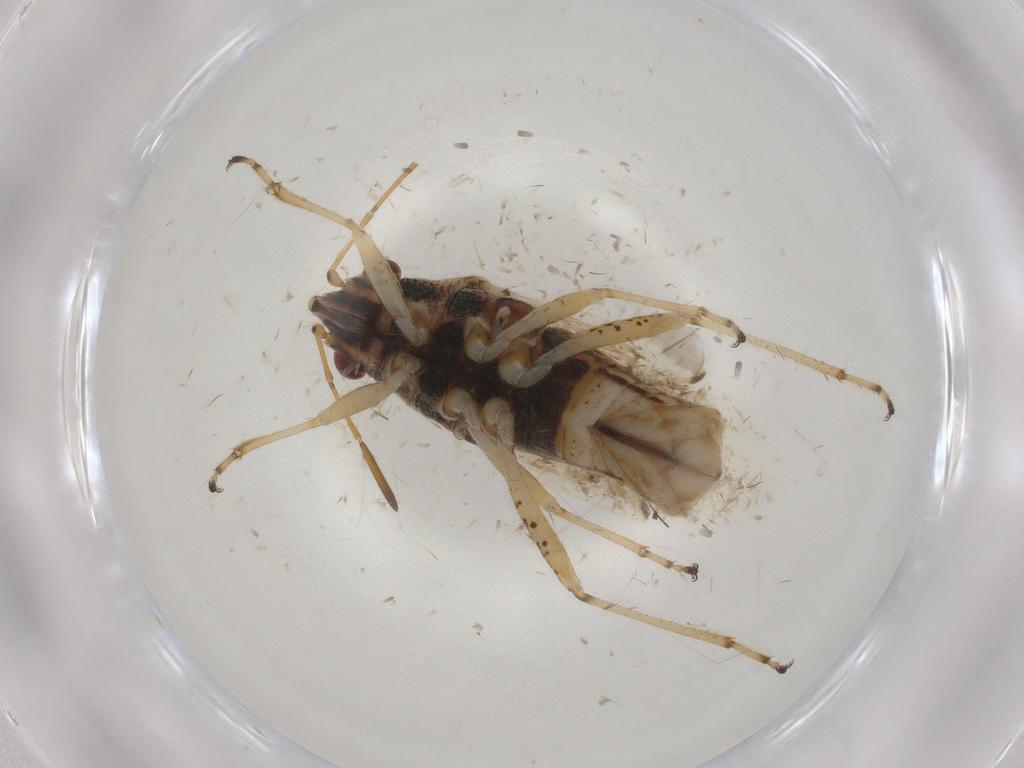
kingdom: Animalia
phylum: Arthropoda
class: Insecta
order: Hemiptera
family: Lygaeidae
